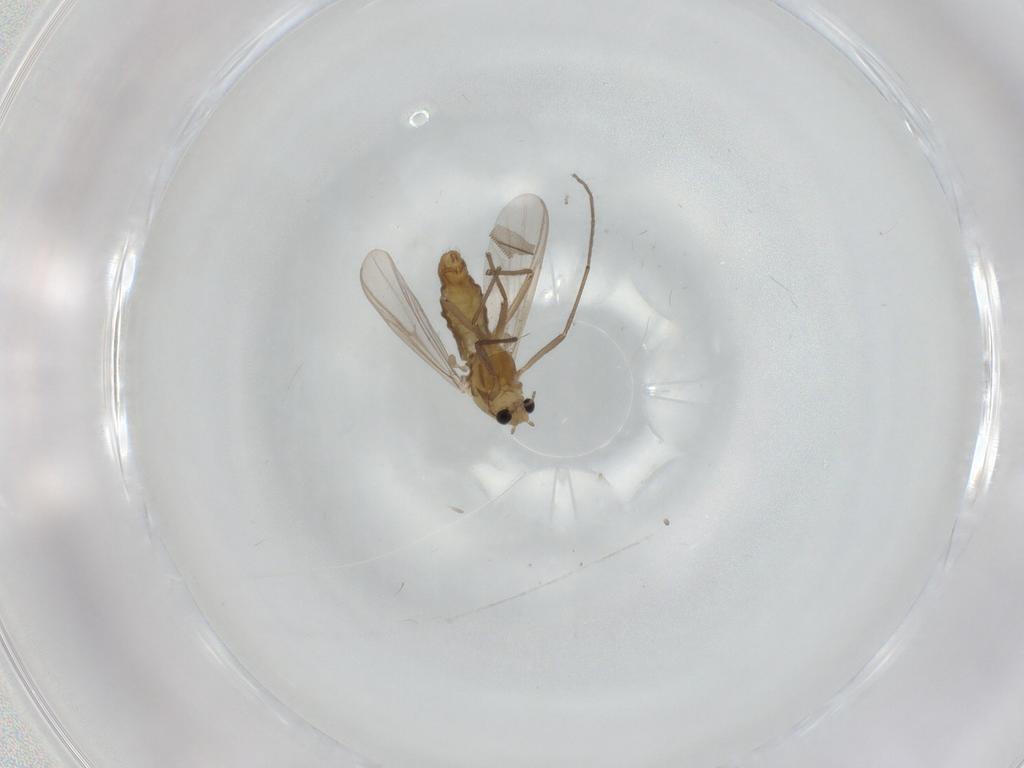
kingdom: Animalia
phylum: Arthropoda
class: Insecta
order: Diptera
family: Chironomidae
